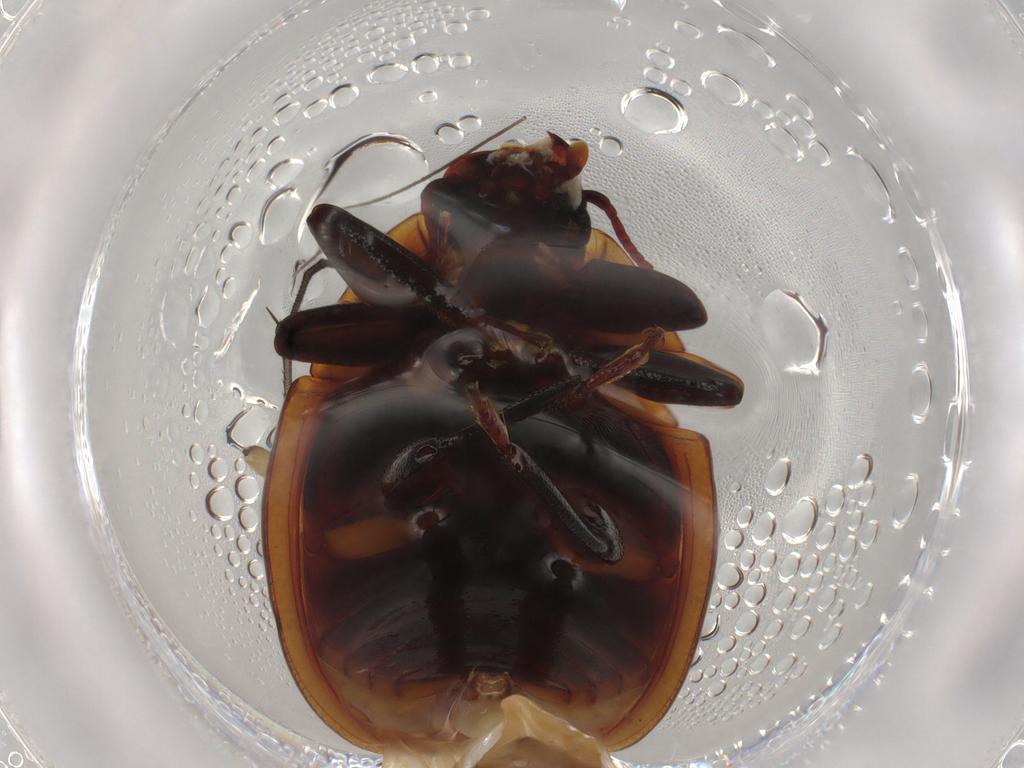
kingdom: Animalia
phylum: Arthropoda
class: Insecta
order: Coleoptera
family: Zopheridae
